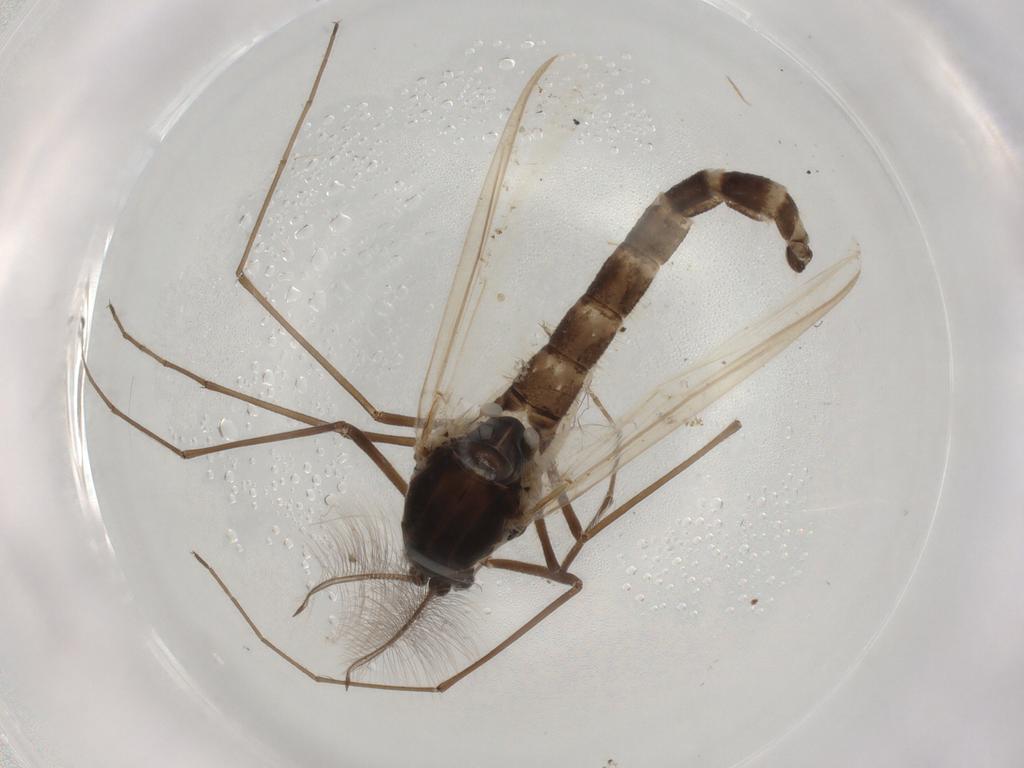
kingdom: Animalia
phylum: Arthropoda
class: Insecta
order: Diptera
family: Chironomidae
